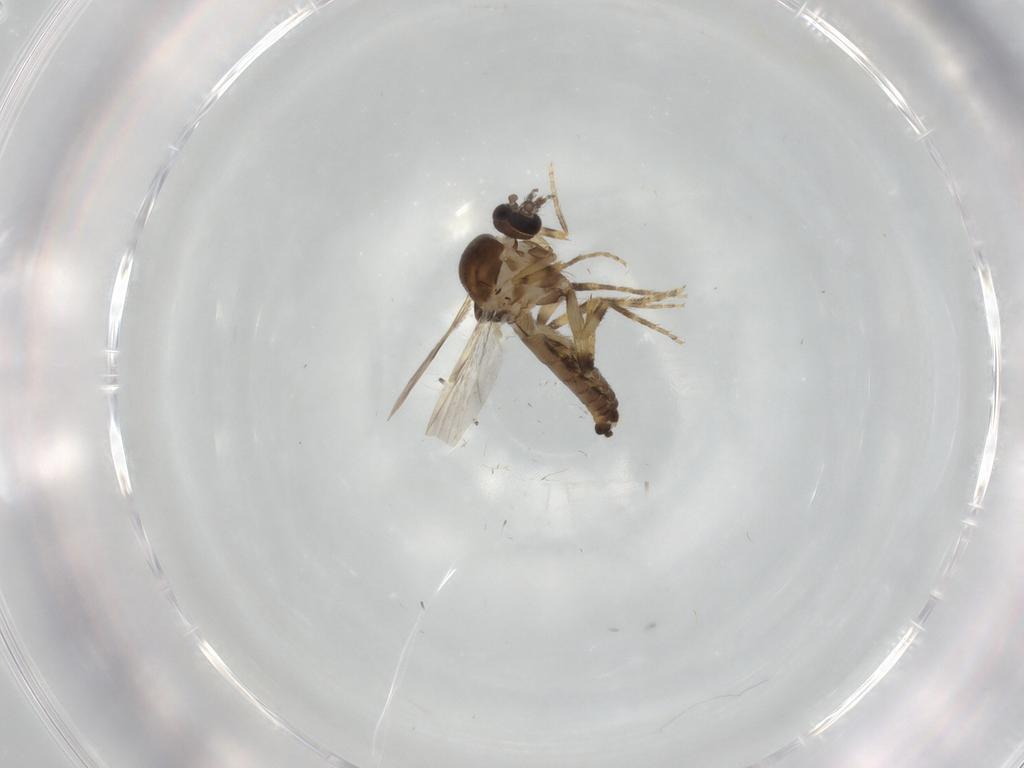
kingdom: Animalia
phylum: Arthropoda
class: Insecta
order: Diptera
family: Ceratopogonidae
